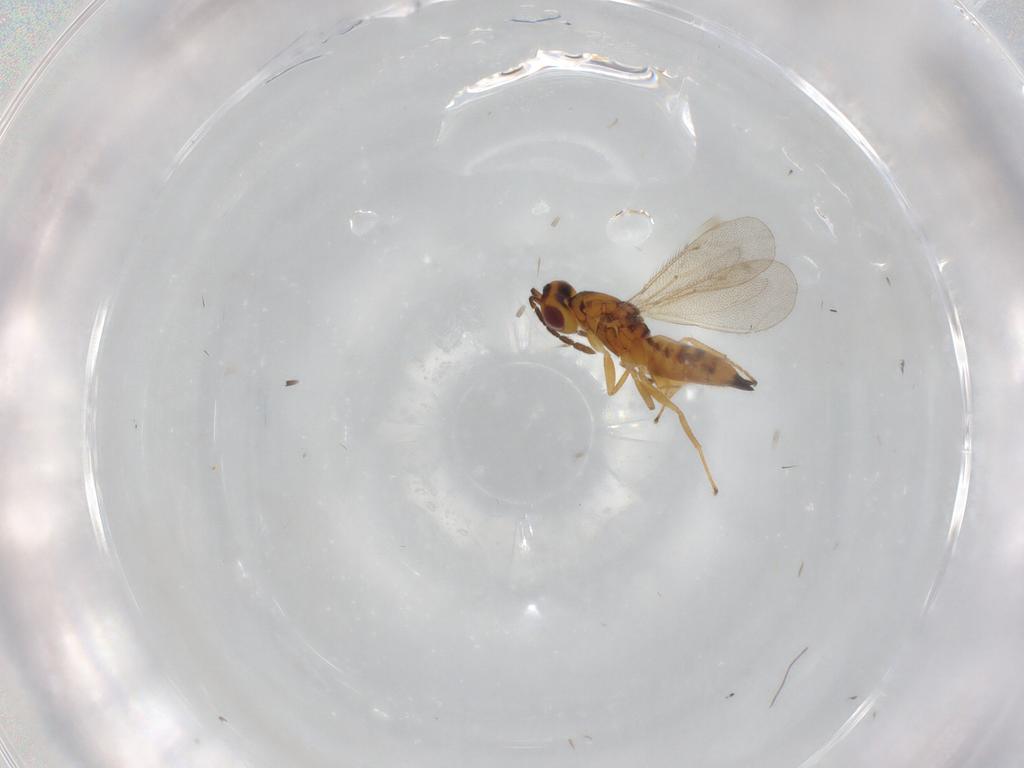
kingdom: Animalia
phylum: Arthropoda
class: Insecta
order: Hymenoptera
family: Eulophidae
